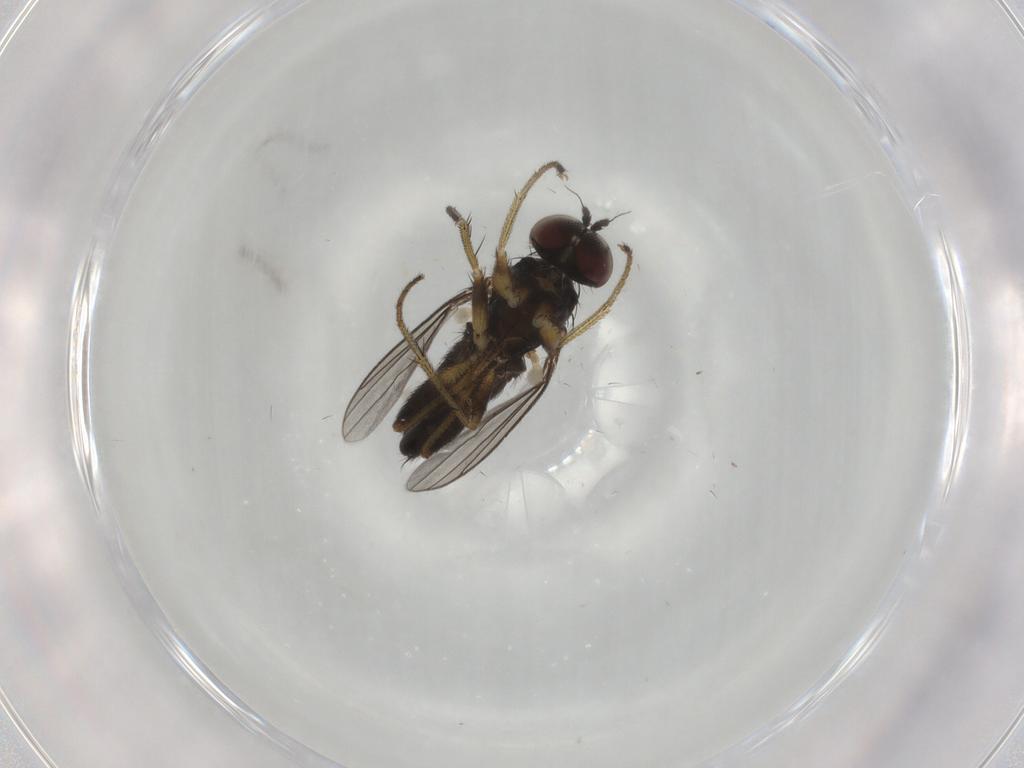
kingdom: Animalia
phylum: Arthropoda
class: Insecta
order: Diptera
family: Dolichopodidae
